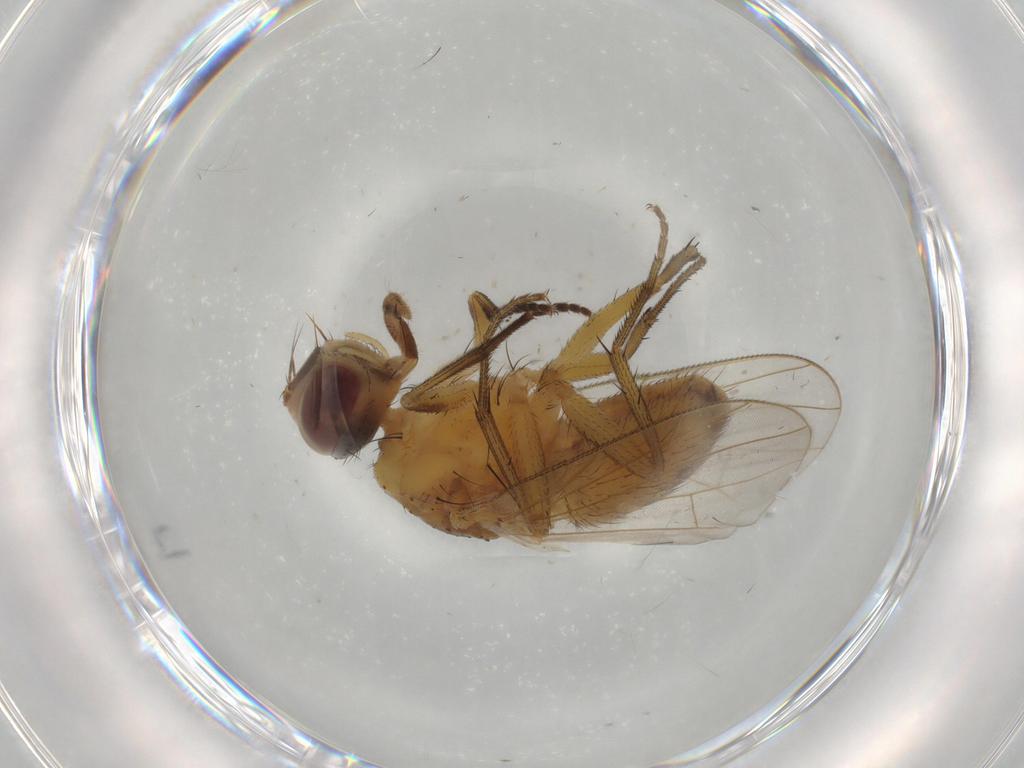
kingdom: Animalia
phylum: Arthropoda
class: Insecta
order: Diptera
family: Muscidae
